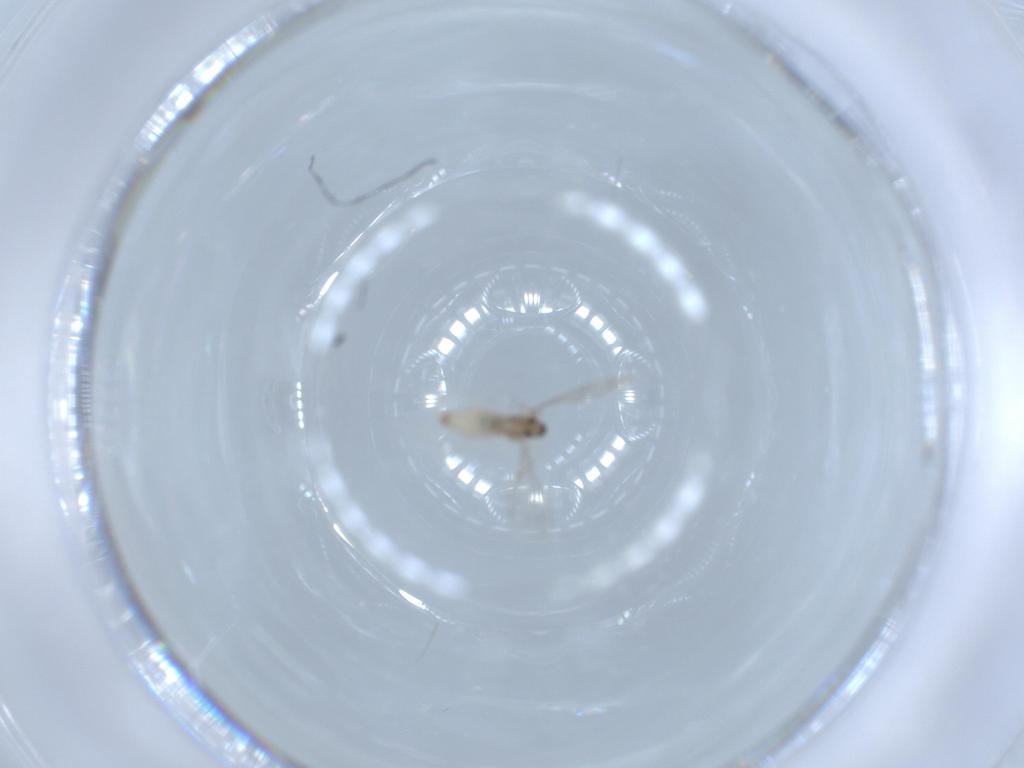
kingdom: Animalia
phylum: Arthropoda
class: Insecta
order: Diptera
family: Cecidomyiidae
